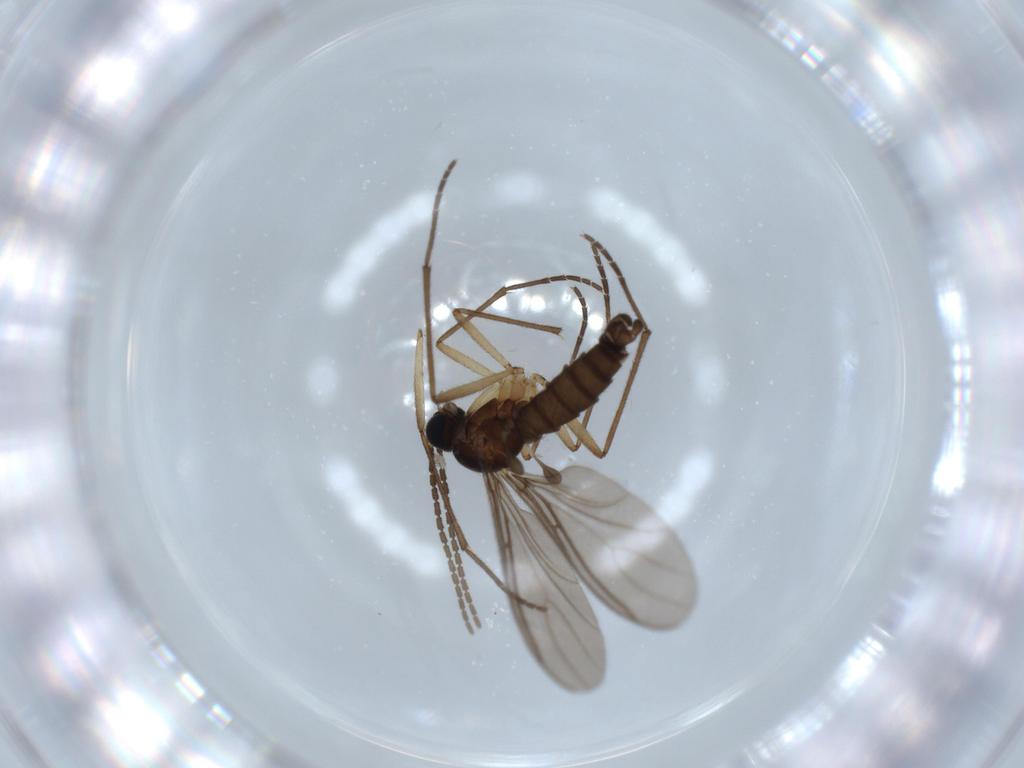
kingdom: Animalia
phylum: Arthropoda
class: Insecta
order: Diptera
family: Sciaridae
